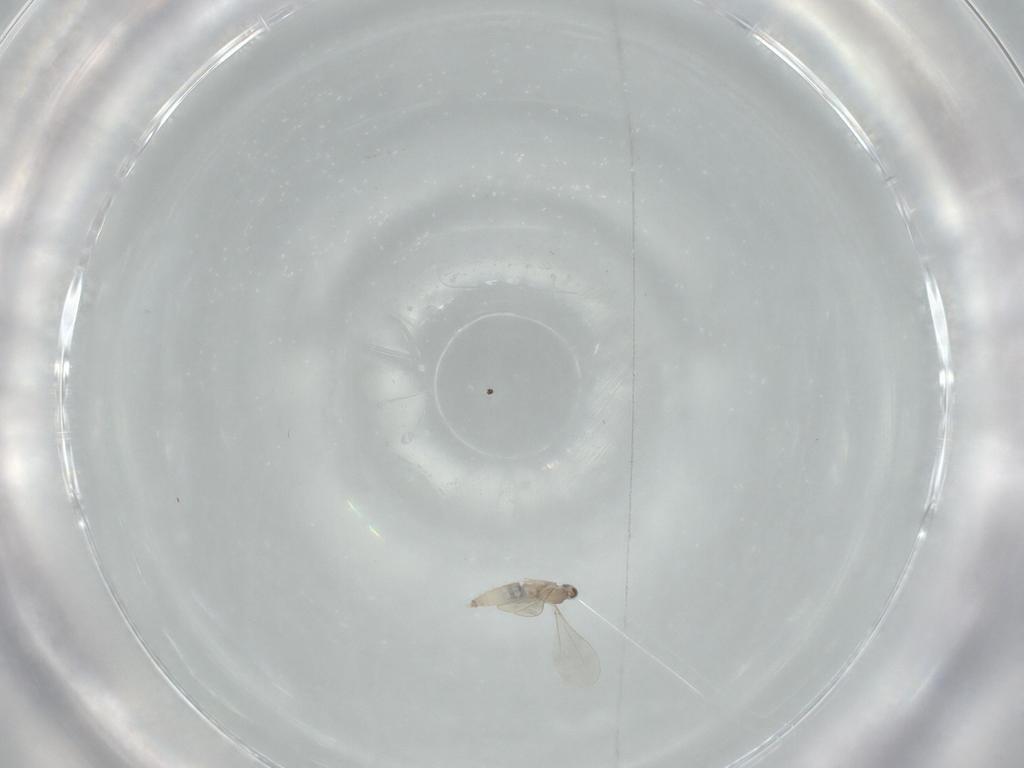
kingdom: Animalia
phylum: Arthropoda
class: Insecta
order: Diptera
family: Cecidomyiidae
